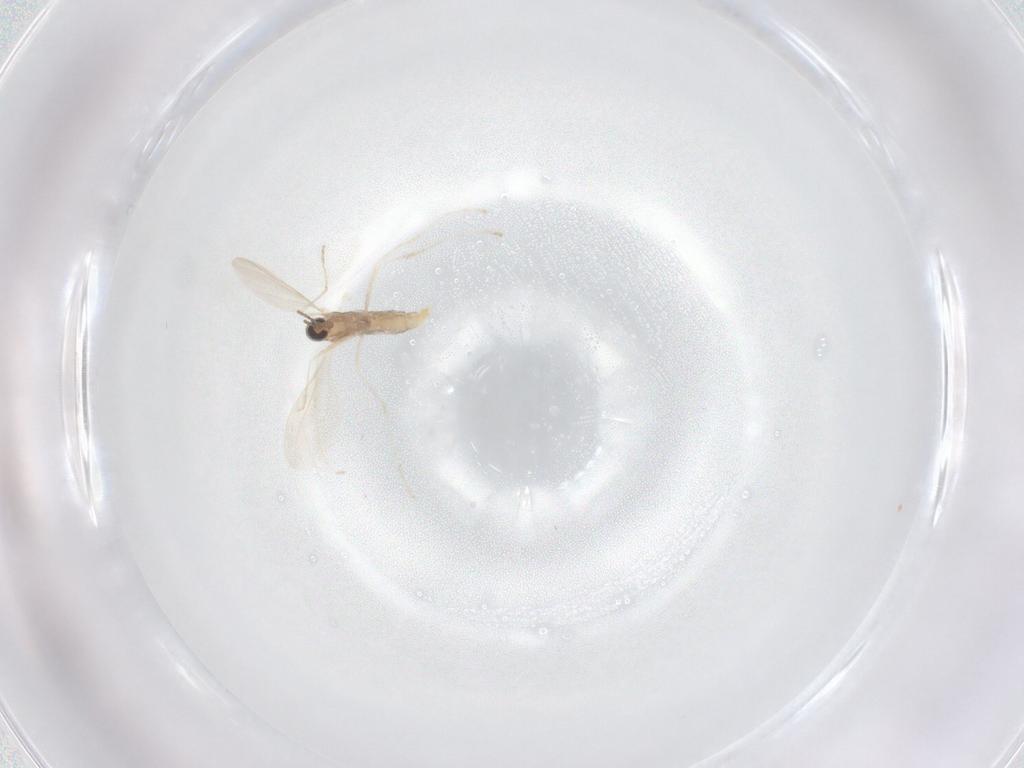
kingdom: Animalia
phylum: Arthropoda
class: Insecta
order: Diptera
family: Cecidomyiidae
